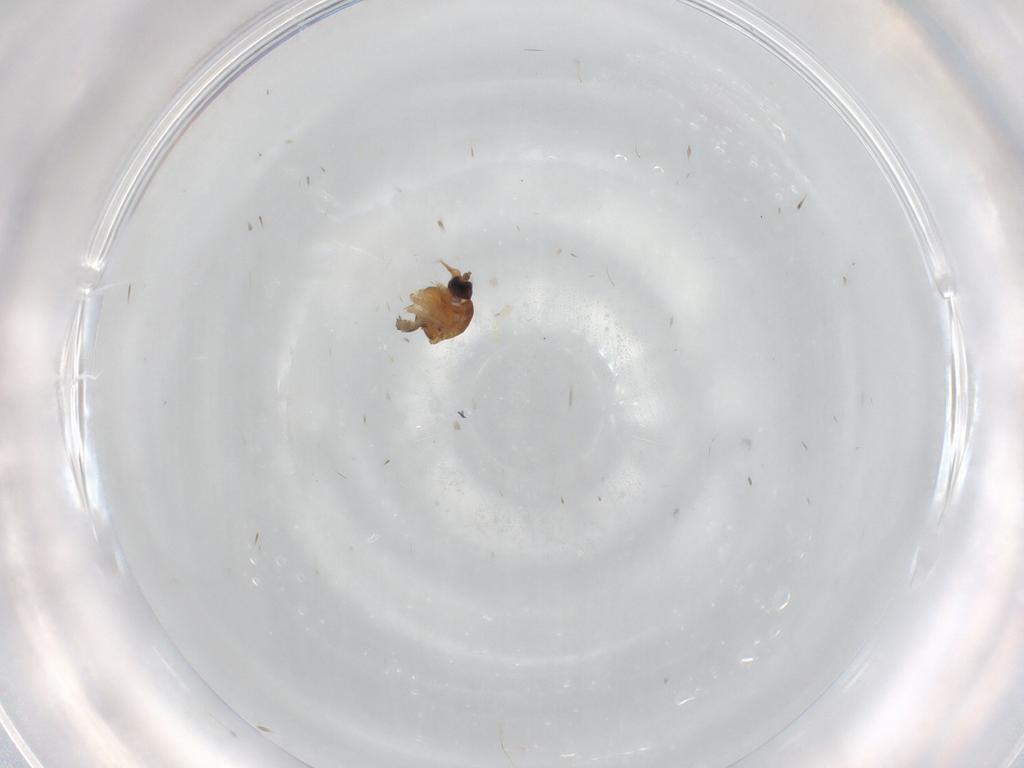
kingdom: Animalia
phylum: Arthropoda
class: Insecta
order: Diptera
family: Ceratopogonidae
